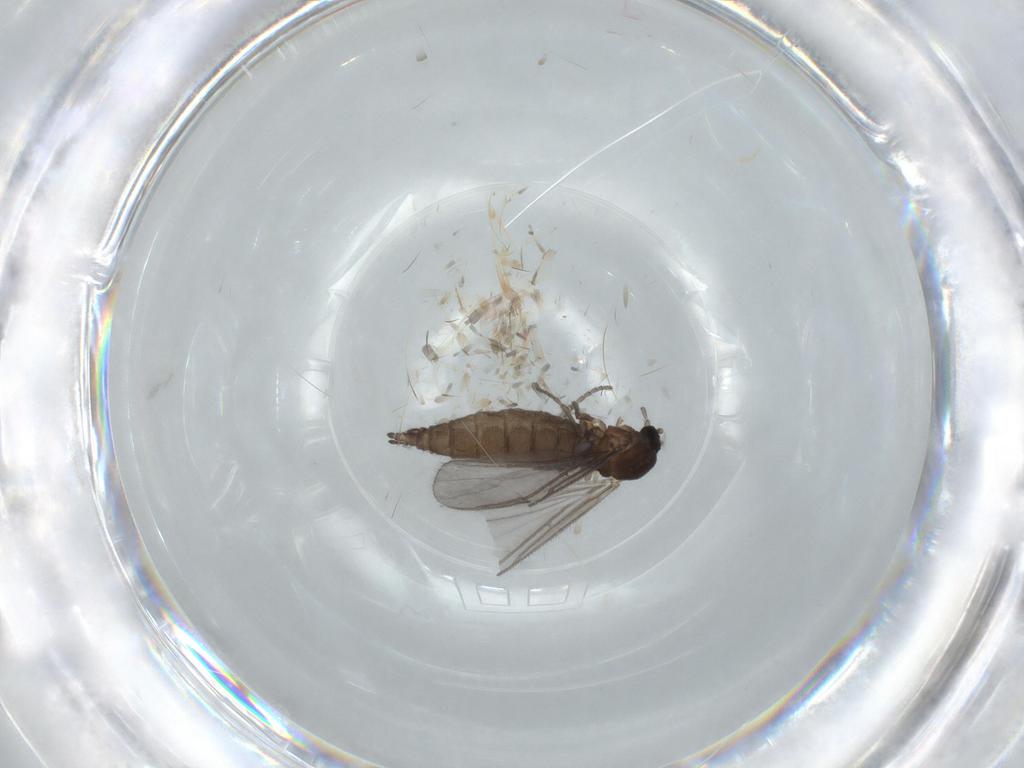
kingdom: Animalia
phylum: Arthropoda
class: Insecta
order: Diptera
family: Sciaridae
